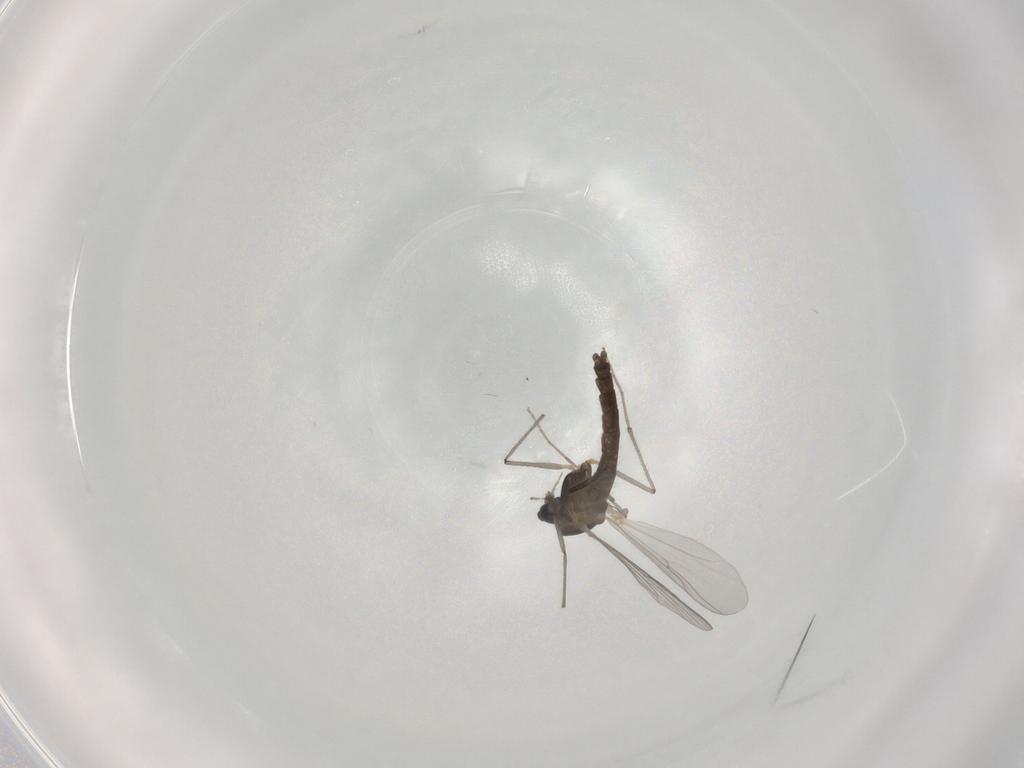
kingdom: Animalia
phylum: Arthropoda
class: Insecta
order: Diptera
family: Chironomidae
